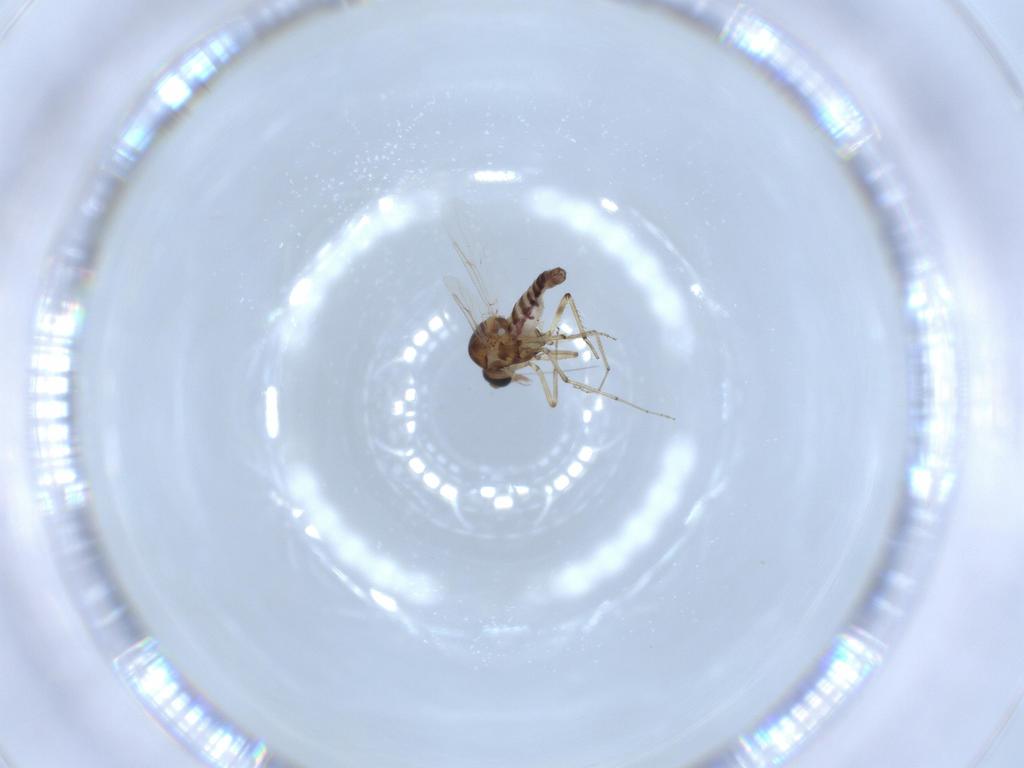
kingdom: Animalia
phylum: Arthropoda
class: Insecta
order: Diptera
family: Ceratopogonidae
